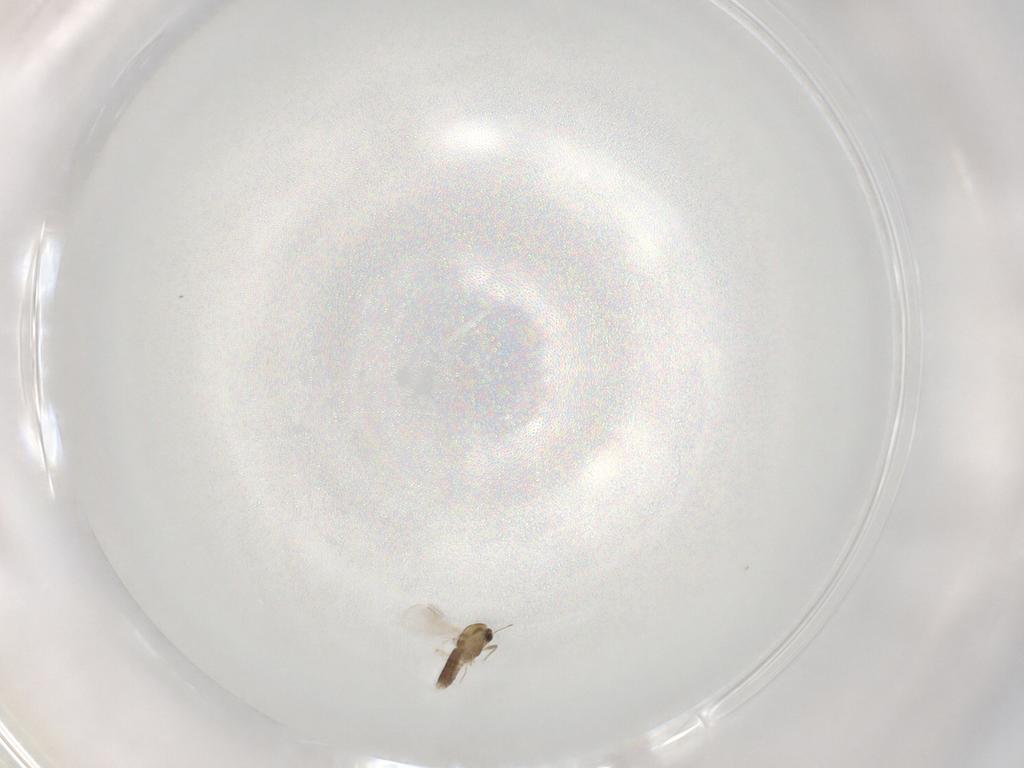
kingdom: Animalia
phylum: Arthropoda
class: Insecta
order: Diptera
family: Chironomidae
